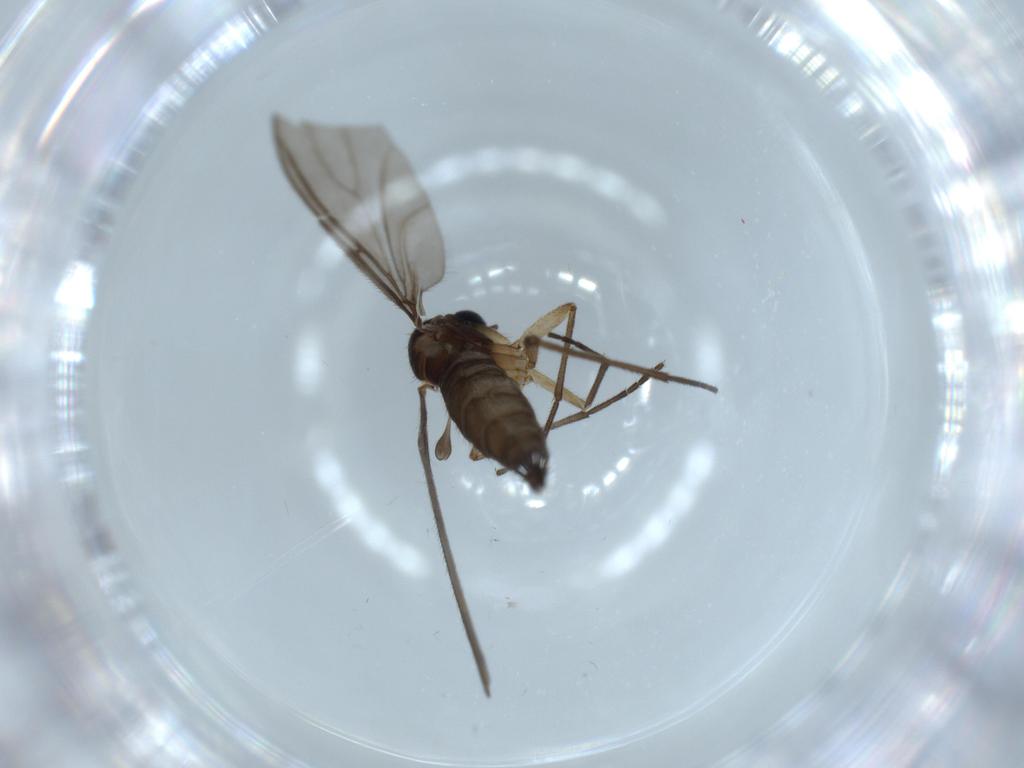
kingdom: Animalia
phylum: Arthropoda
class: Insecta
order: Diptera
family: Sciaridae
